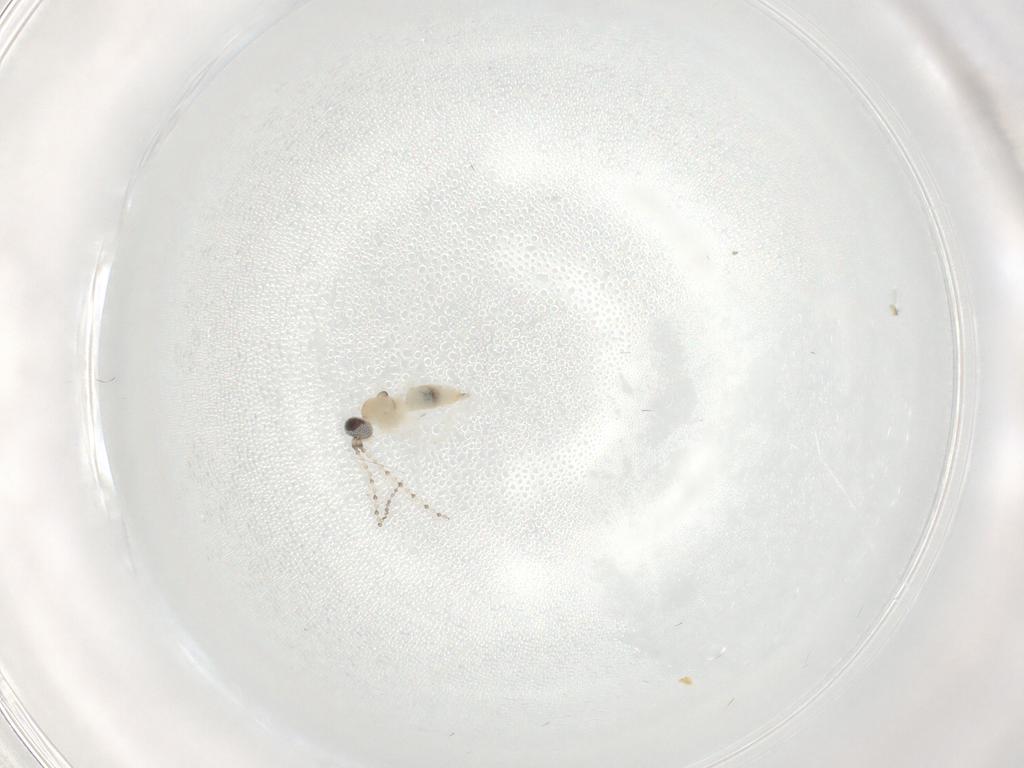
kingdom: Animalia
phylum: Arthropoda
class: Insecta
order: Diptera
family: Cecidomyiidae
